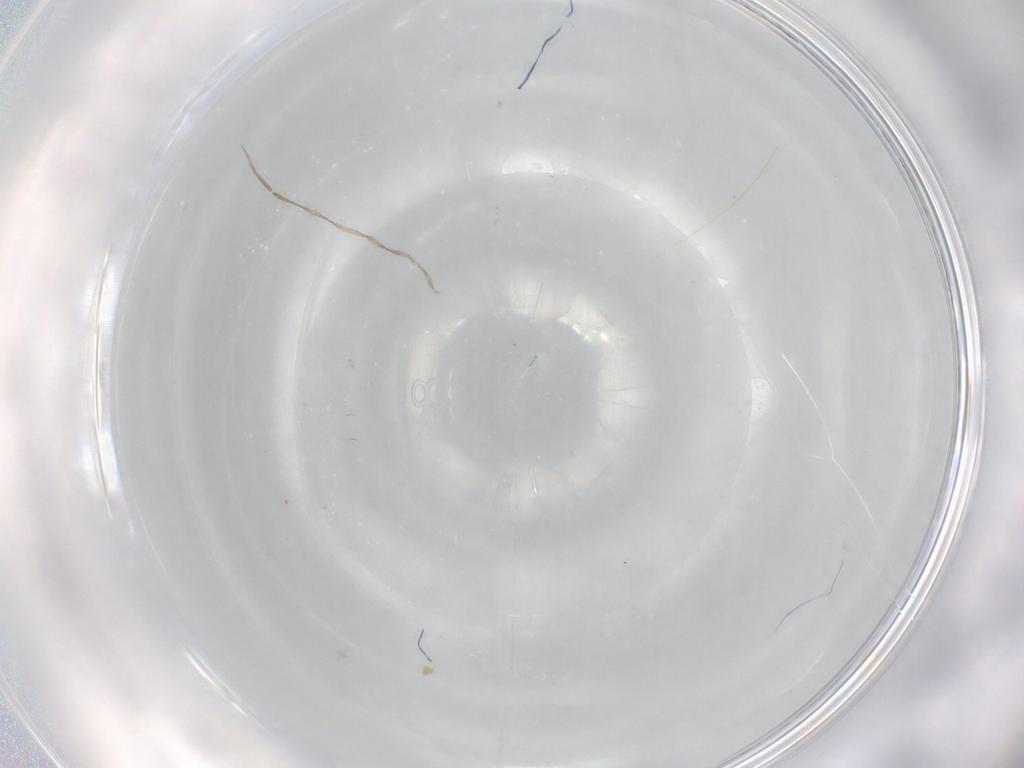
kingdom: Animalia
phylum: Arthropoda
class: Insecta
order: Diptera
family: Chironomidae
